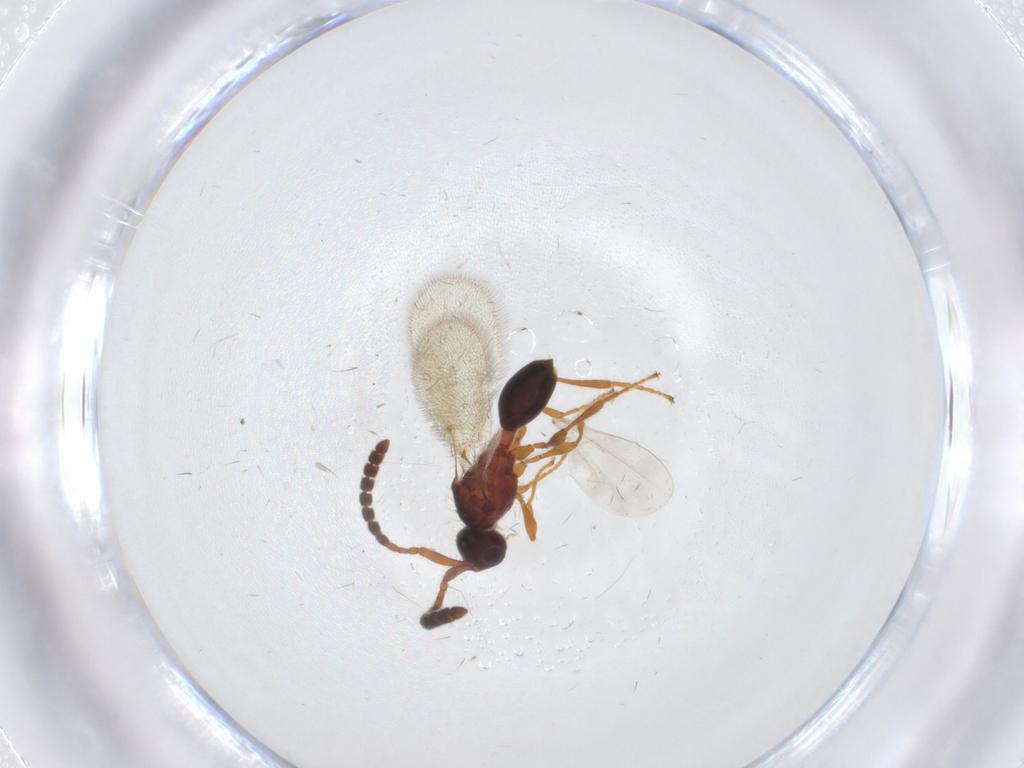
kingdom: Animalia
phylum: Arthropoda
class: Insecta
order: Hymenoptera
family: Diapriidae
